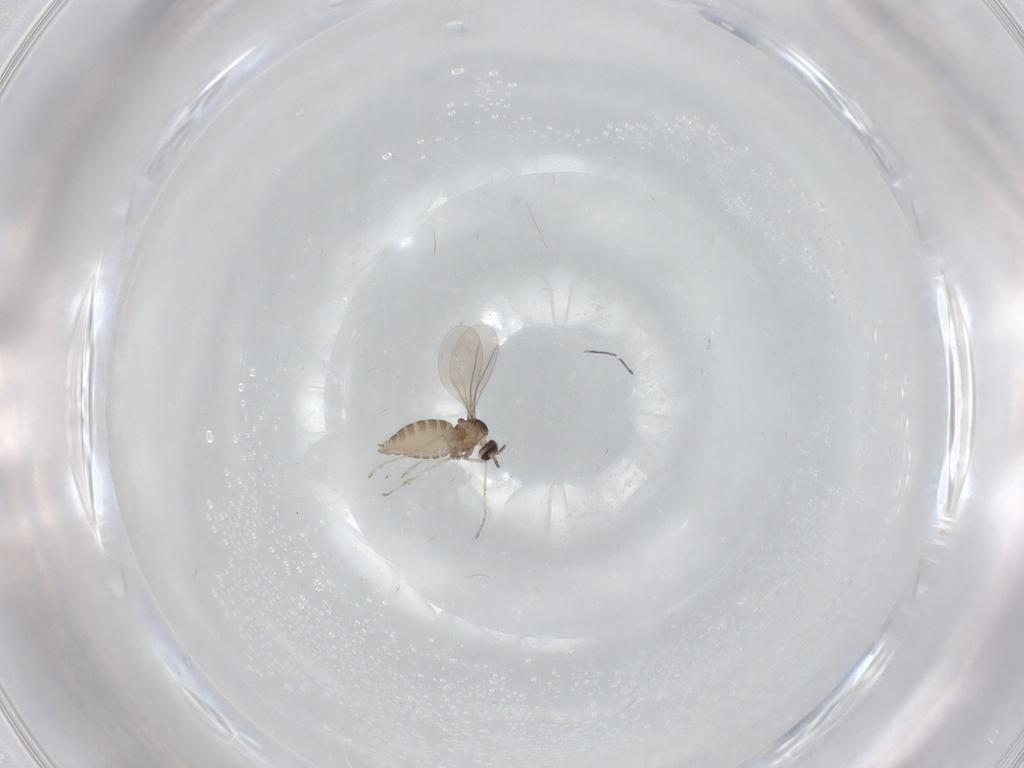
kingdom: Animalia
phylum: Arthropoda
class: Insecta
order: Diptera
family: Cecidomyiidae
